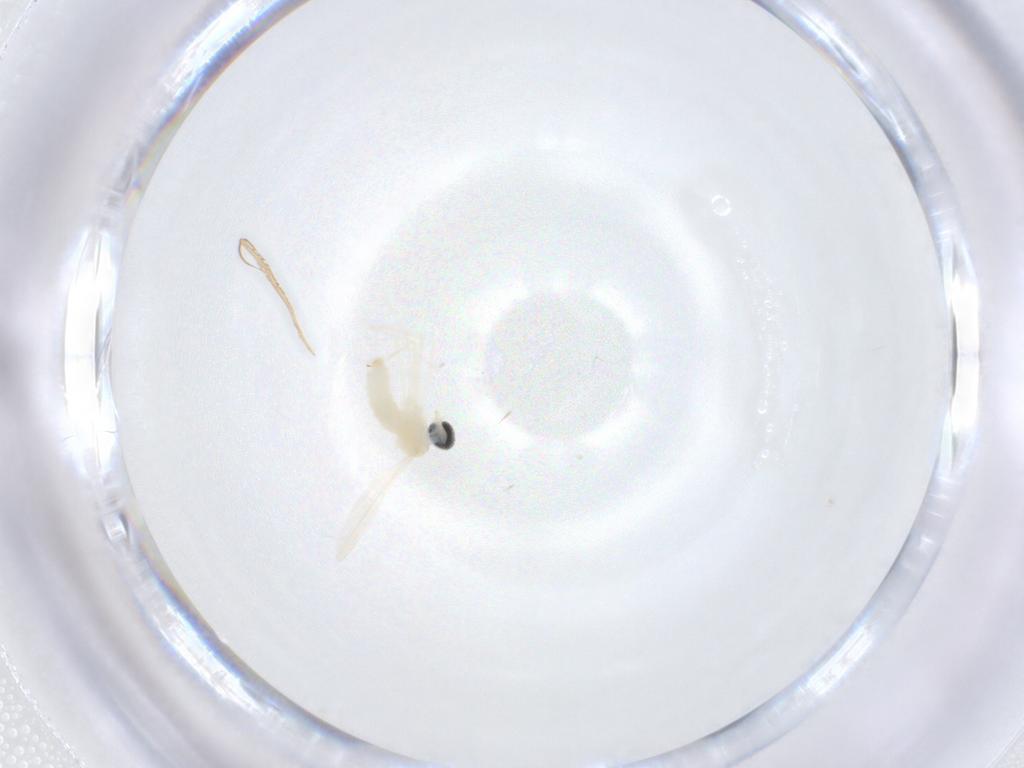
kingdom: Animalia
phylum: Arthropoda
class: Insecta
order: Diptera
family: Cecidomyiidae
